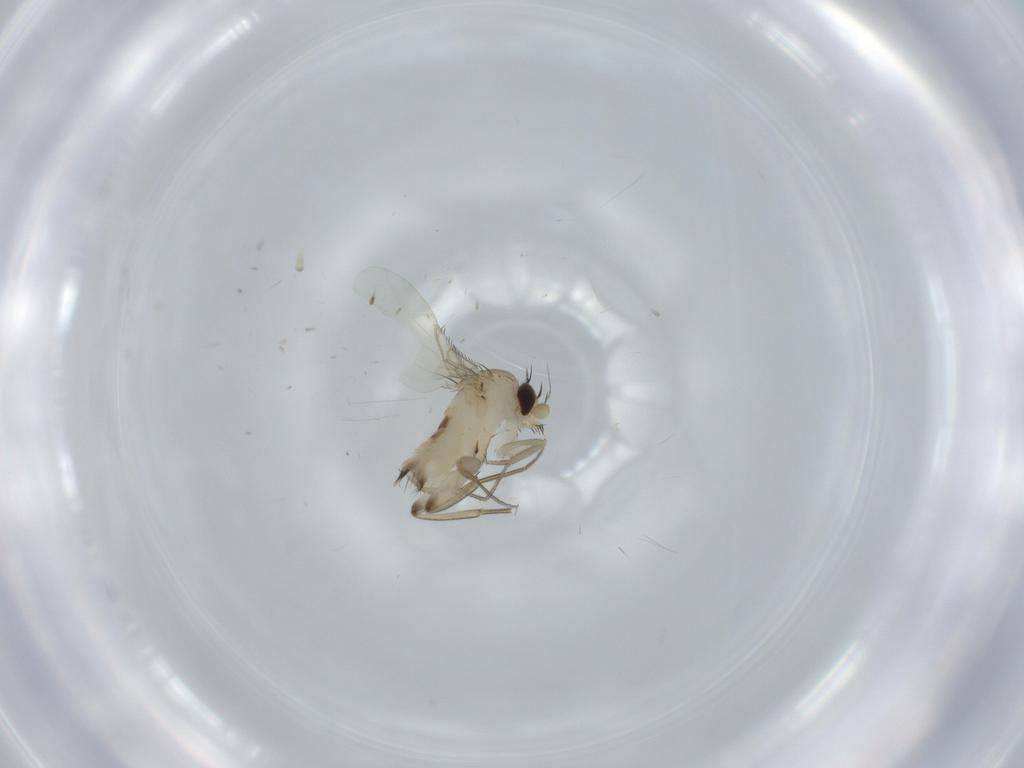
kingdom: Animalia
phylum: Arthropoda
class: Insecta
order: Diptera
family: Phoridae
